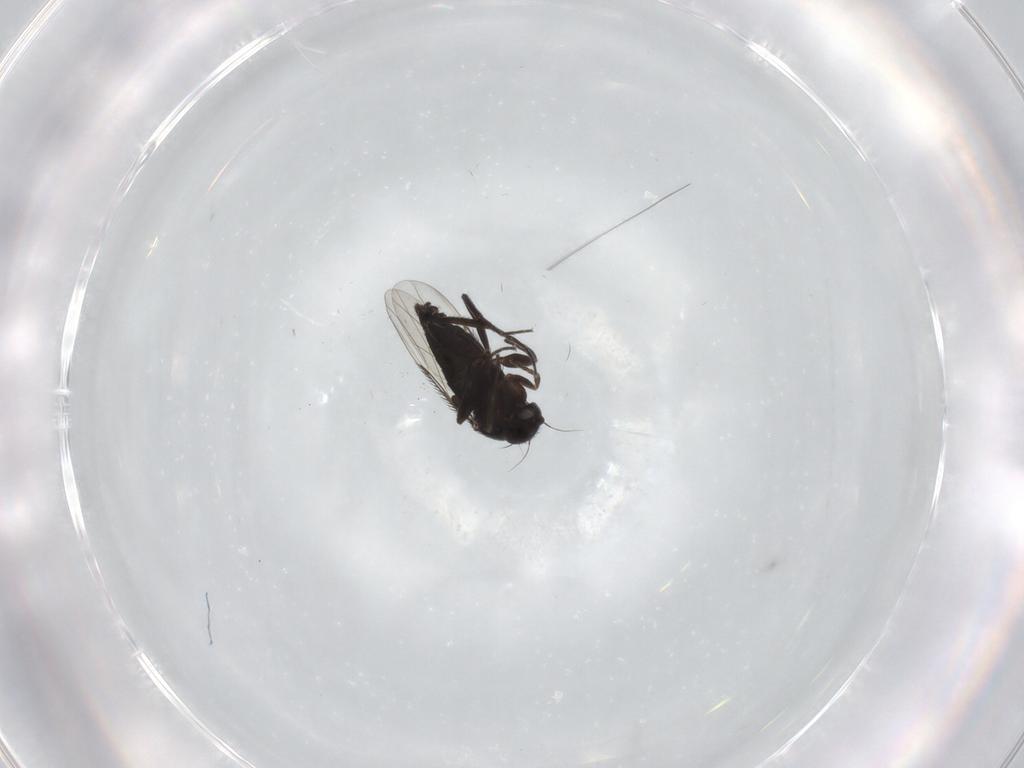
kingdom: Animalia
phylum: Arthropoda
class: Insecta
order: Diptera
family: Phoridae
